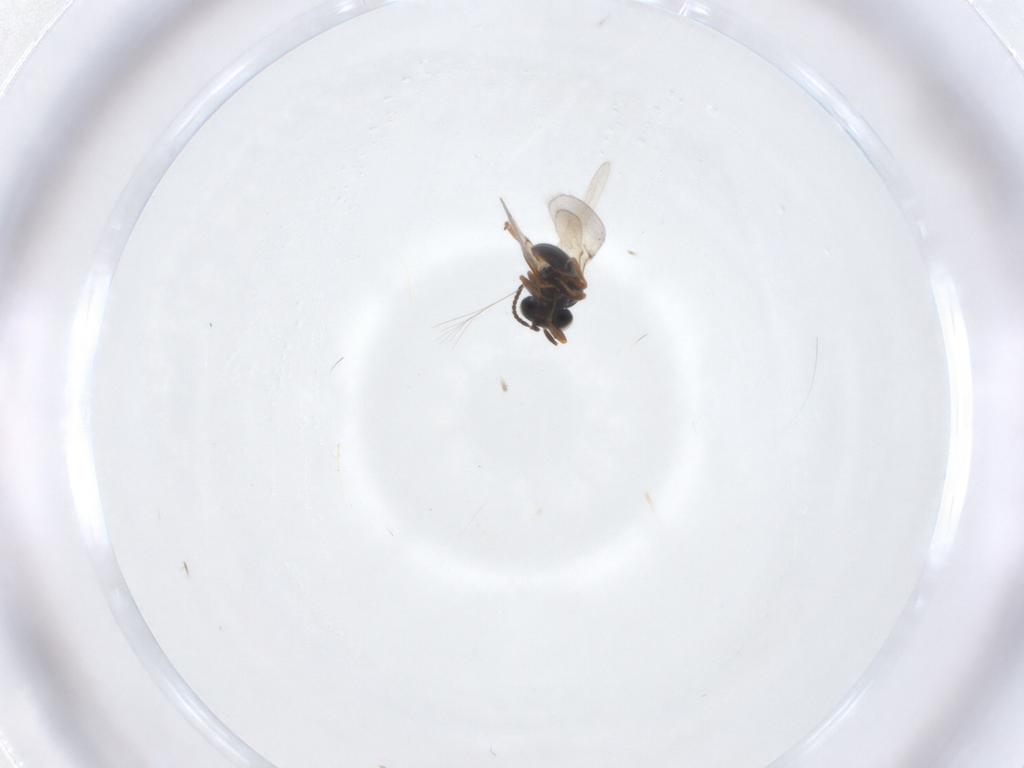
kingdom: Animalia
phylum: Arthropoda
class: Insecta
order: Hymenoptera
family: Scelionidae
